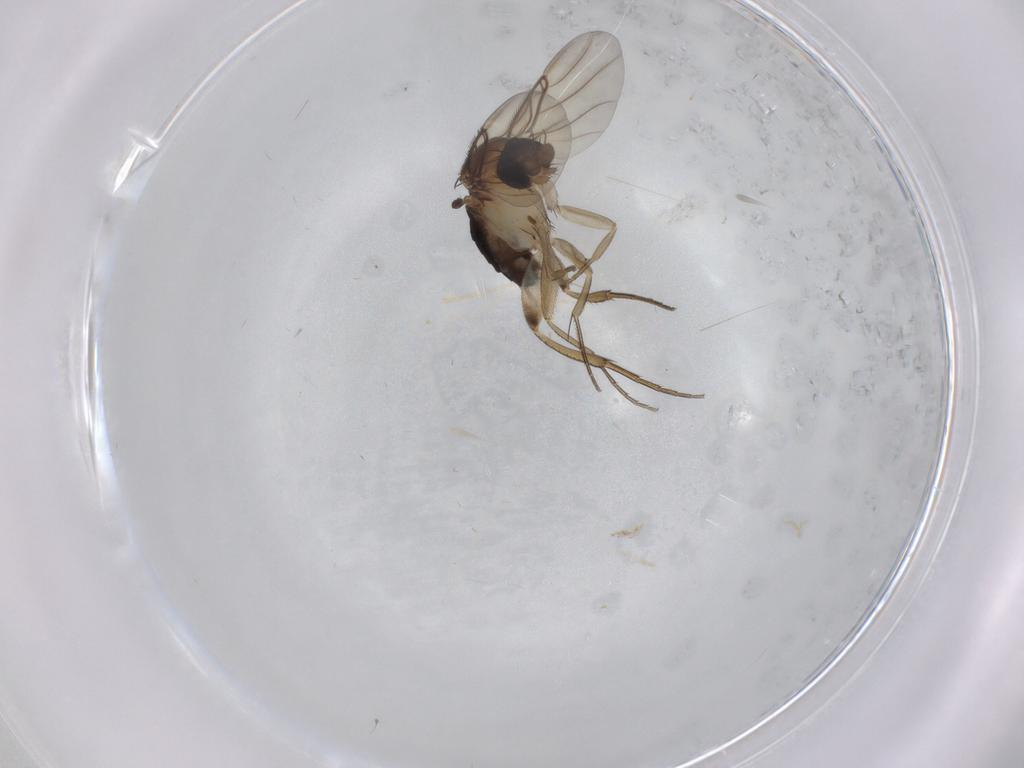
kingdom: Animalia
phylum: Arthropoda
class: Insecta
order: Diptera
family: Phoridae
